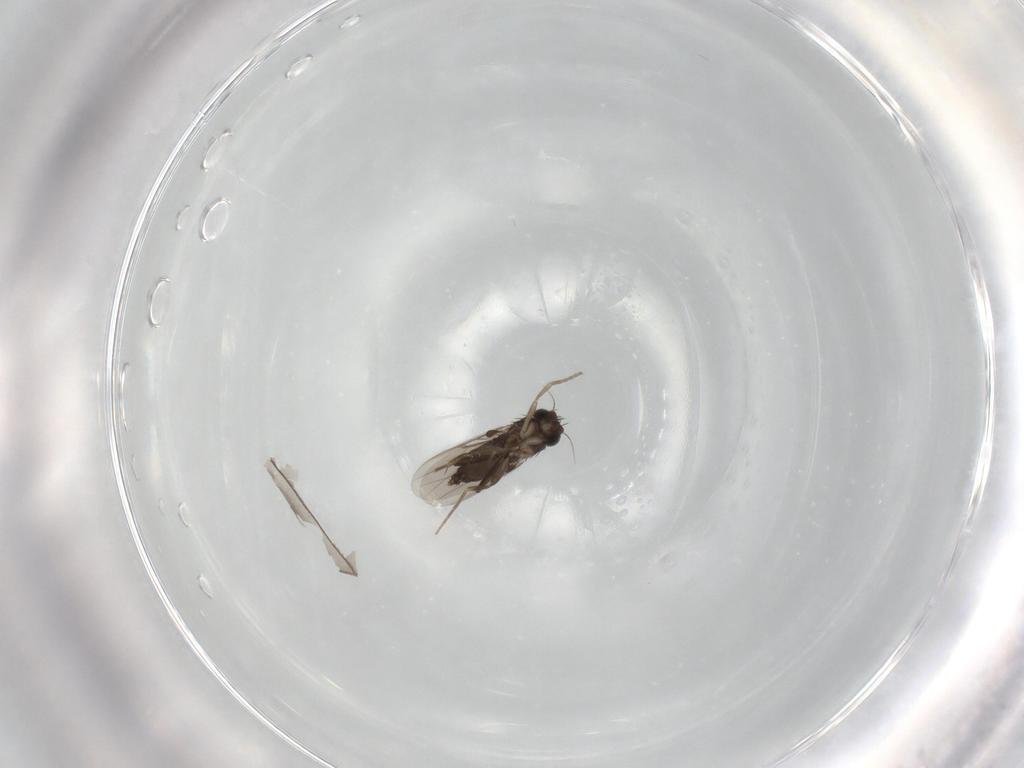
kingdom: Animalia
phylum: Arthropoda
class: Insecta
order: Diptera
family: Phoridae
